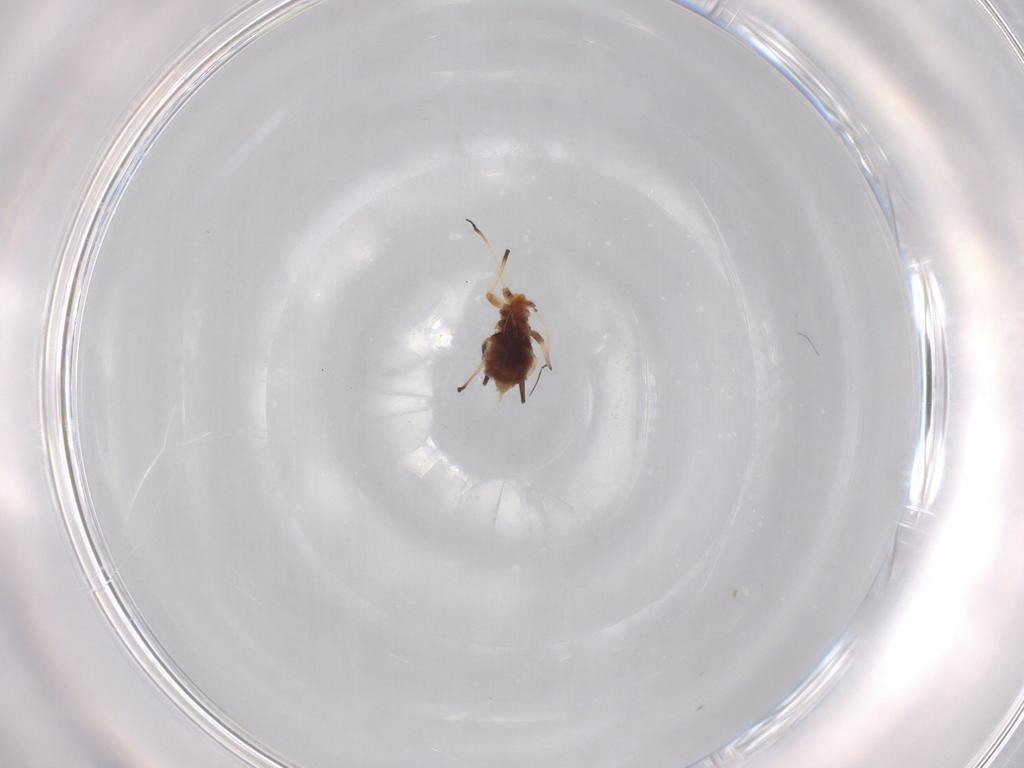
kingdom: Animalia
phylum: Arthropoda
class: Insecta
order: Hemiptera
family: Aphididae
